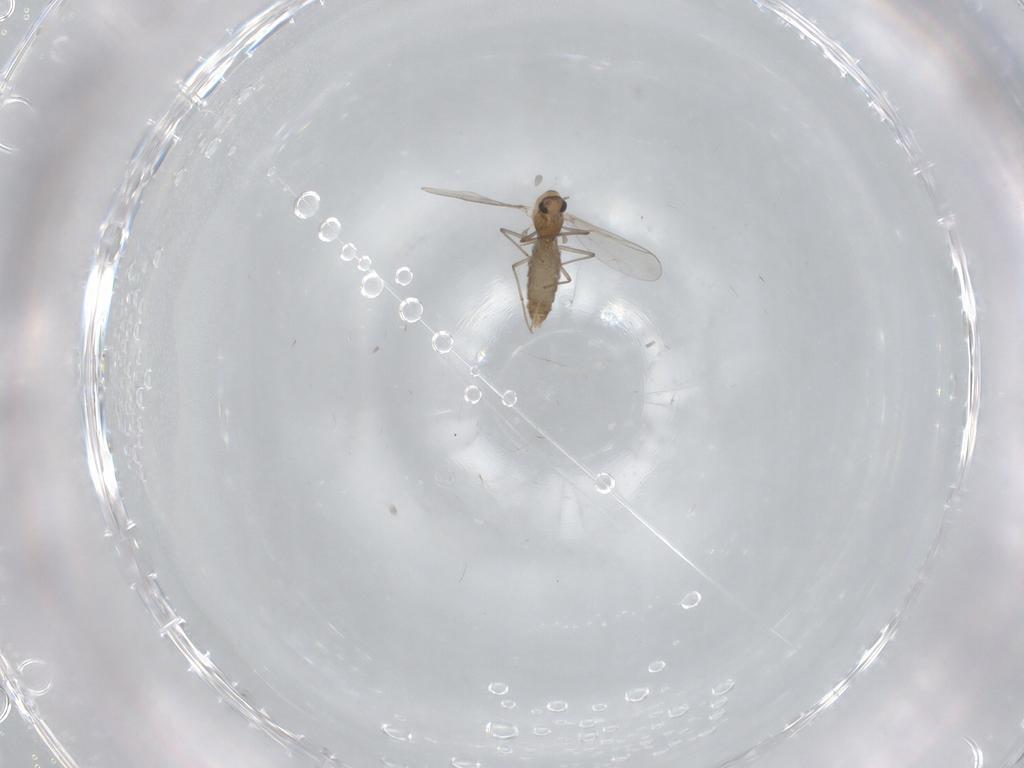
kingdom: Animalia
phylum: Arthropoda
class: Insecta
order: Diptera
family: Chironomidae
